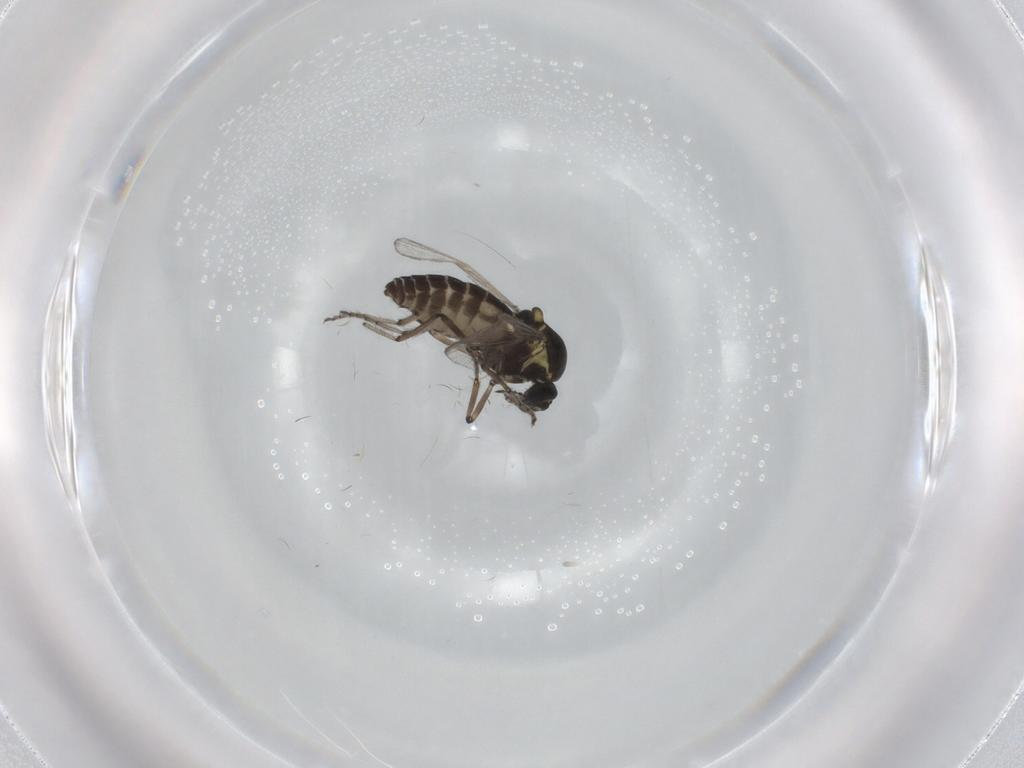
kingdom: Animalia
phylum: Arthropoda
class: Insecta
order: Diptera
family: Ceratopogonidae
